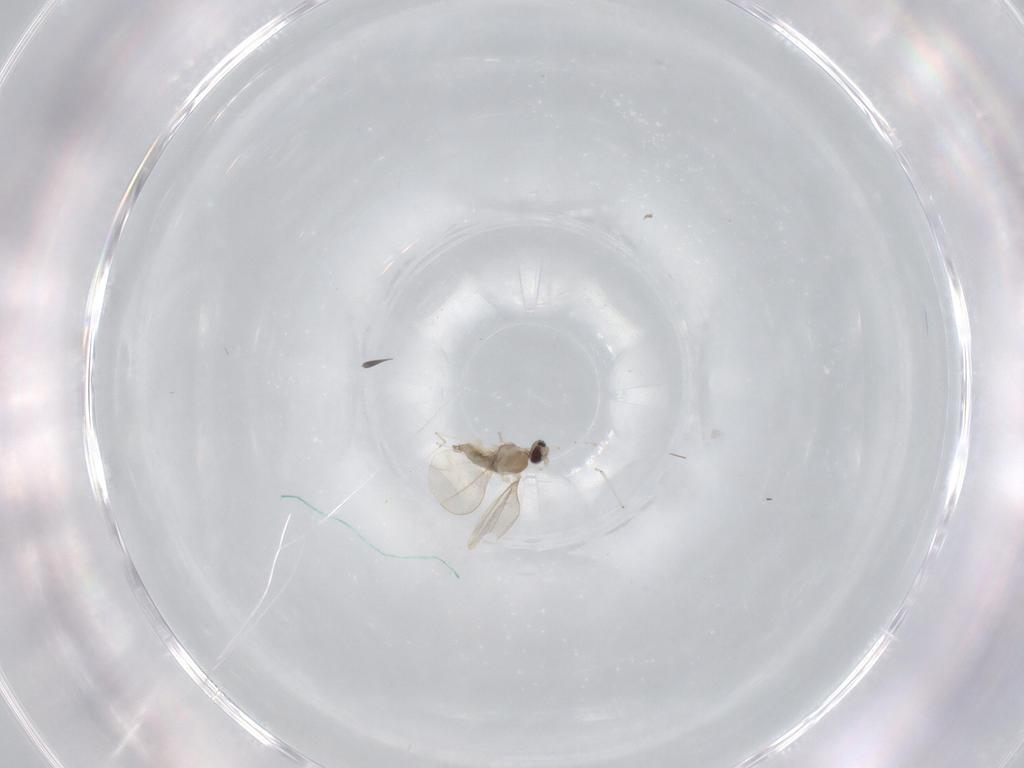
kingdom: Animalia
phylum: Arthropoda
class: Insecta
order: Diptera
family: Cecidomyiidae
